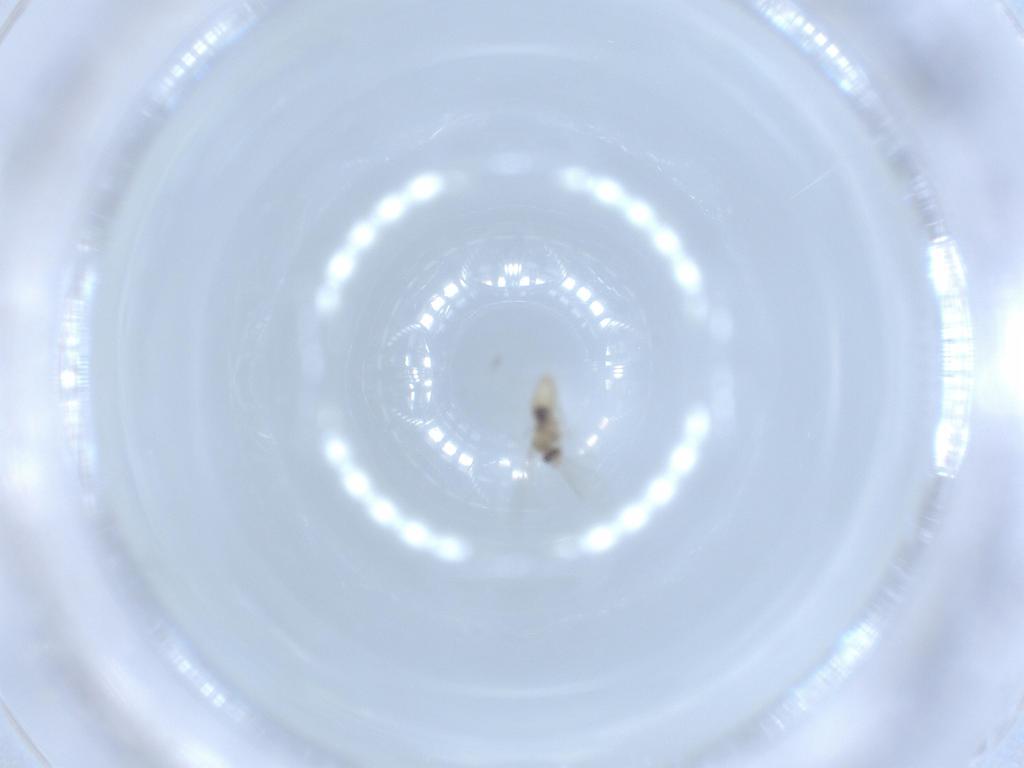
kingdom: Animalia
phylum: Arthropoda
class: Insecta
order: Diptera
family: Cecidomyiidae
